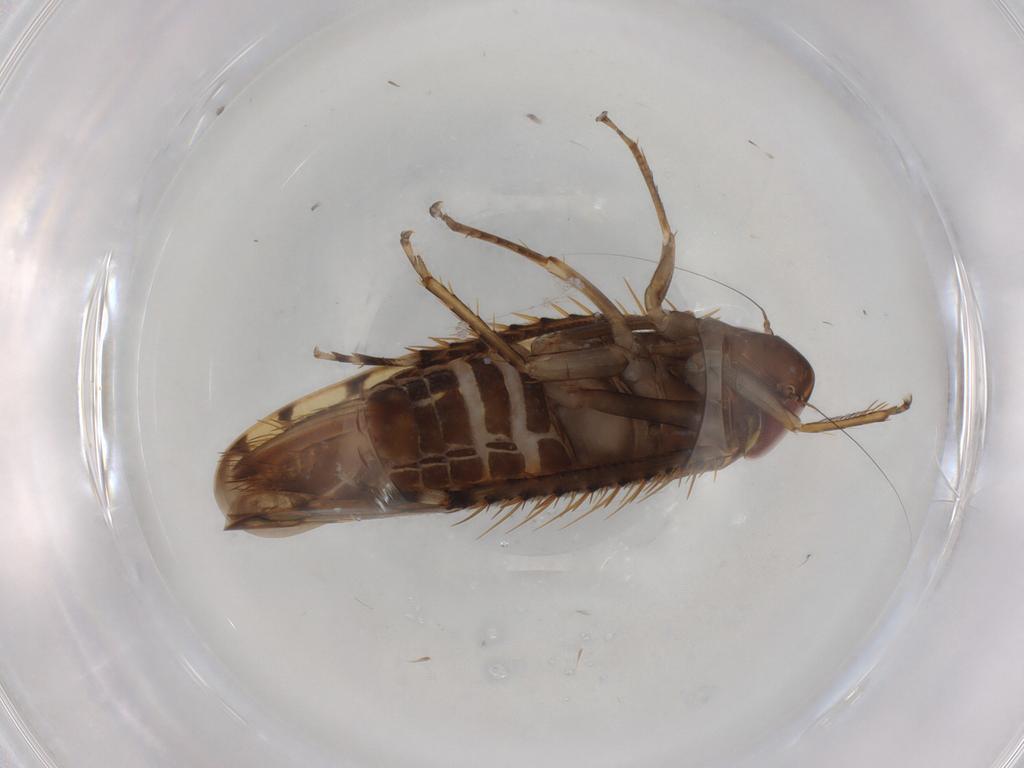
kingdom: Animalia
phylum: Arthropoda
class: Insecta
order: Hemiptera
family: Cicadellidae
